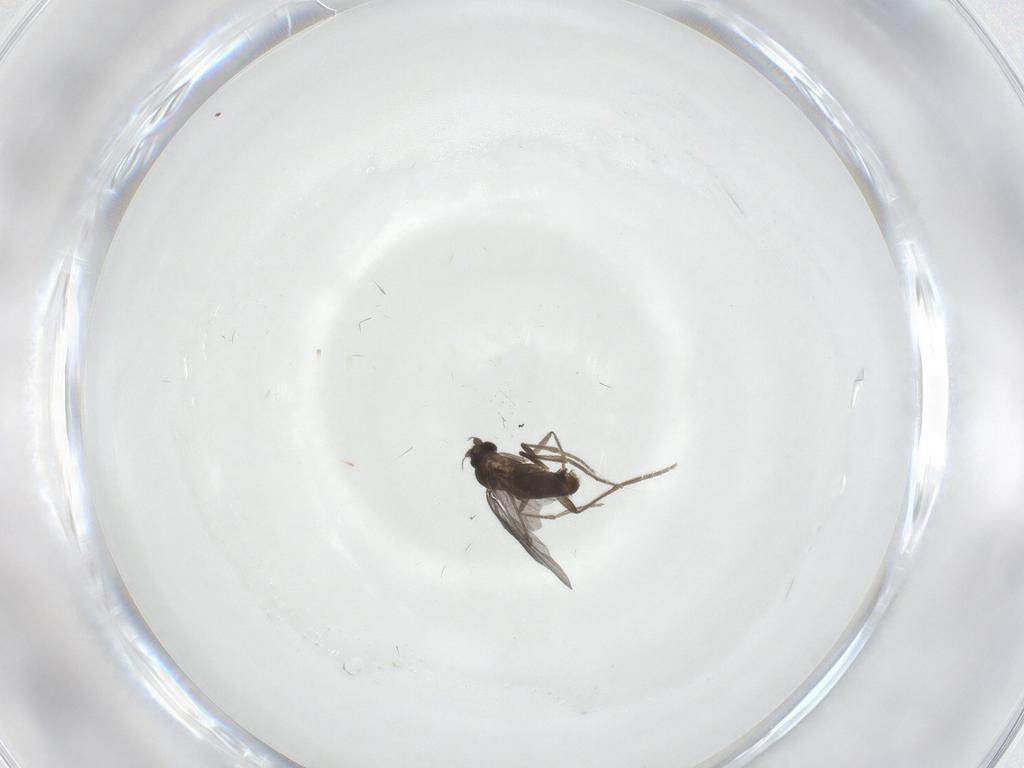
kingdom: Animalia
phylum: Arthropoda
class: Insecta
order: Diptera
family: Phoridae
